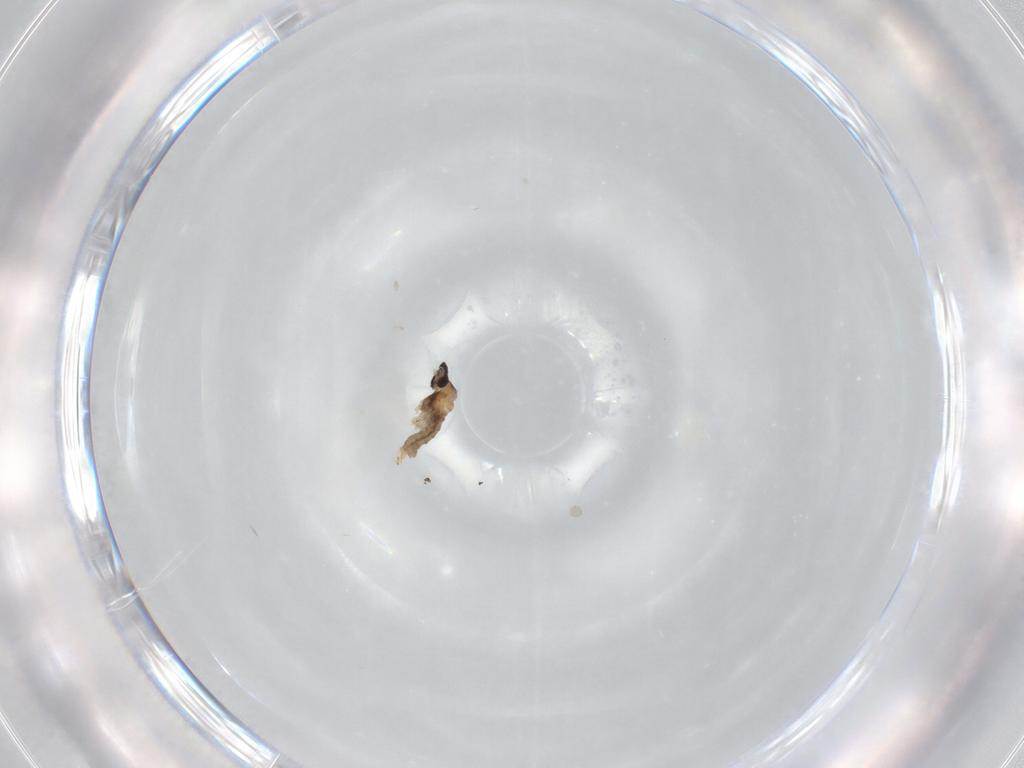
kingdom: Animalia
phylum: Arthropoda
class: Insecta
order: Diptera
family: Cecidomyiidae
